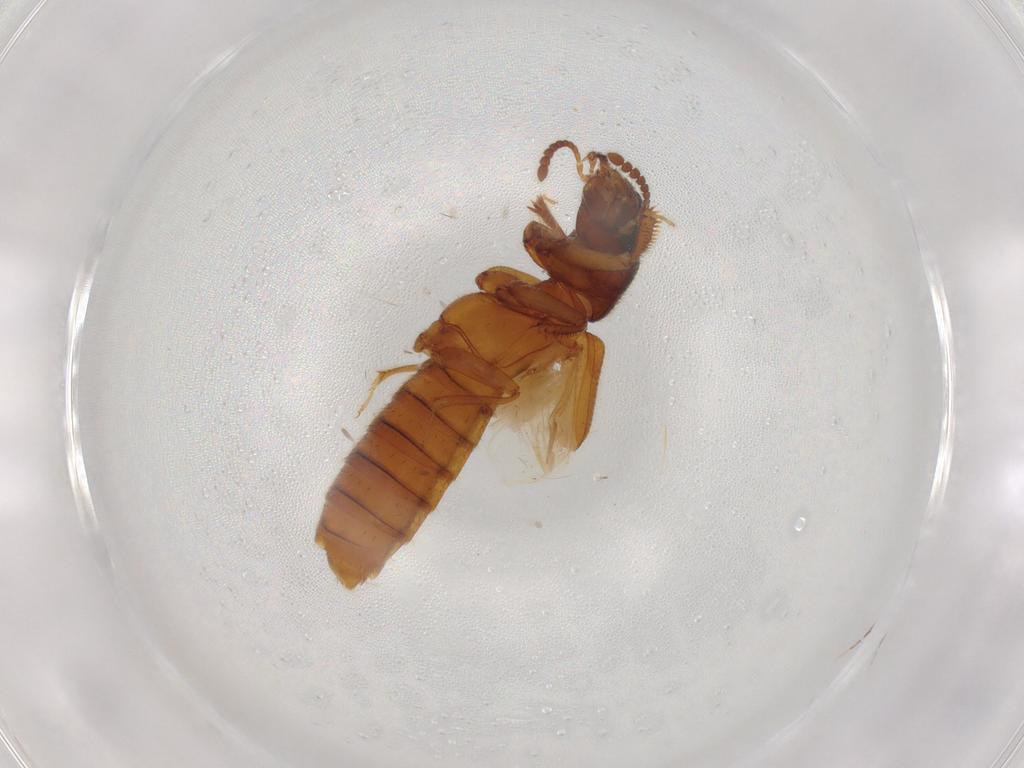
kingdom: Animalia
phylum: Arthropoda
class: Insecta
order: Coleoptera
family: Staphylinidae
